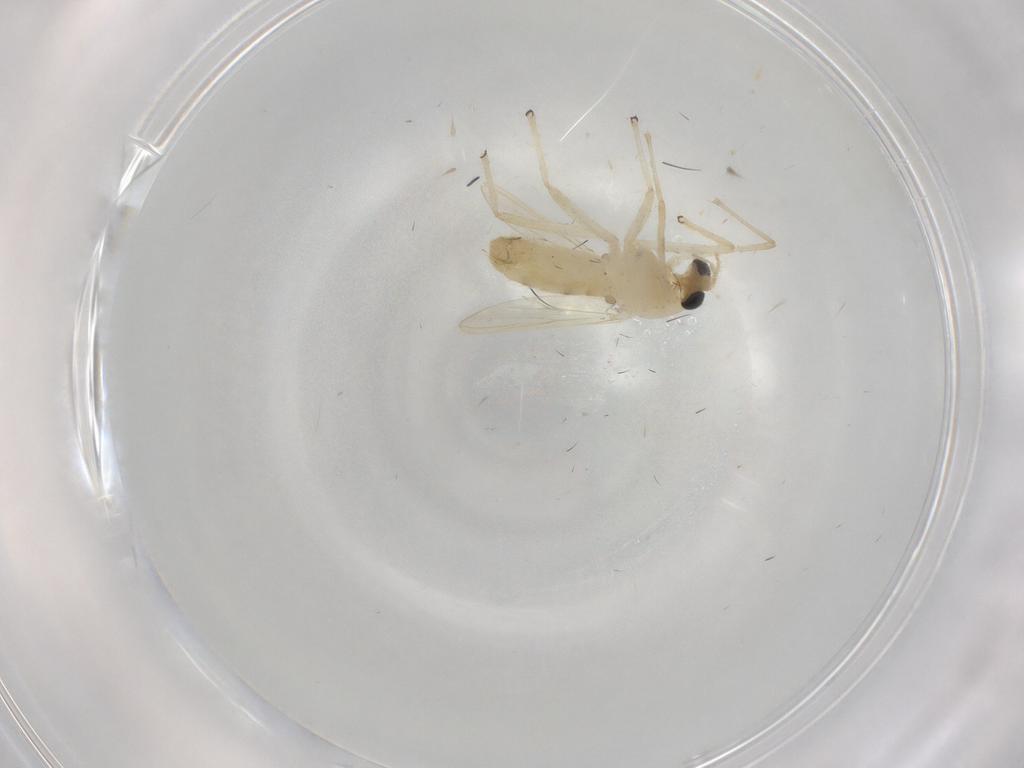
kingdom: Animalia
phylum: Arthropoda
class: Insecta
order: Diptera
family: Chironomidae
